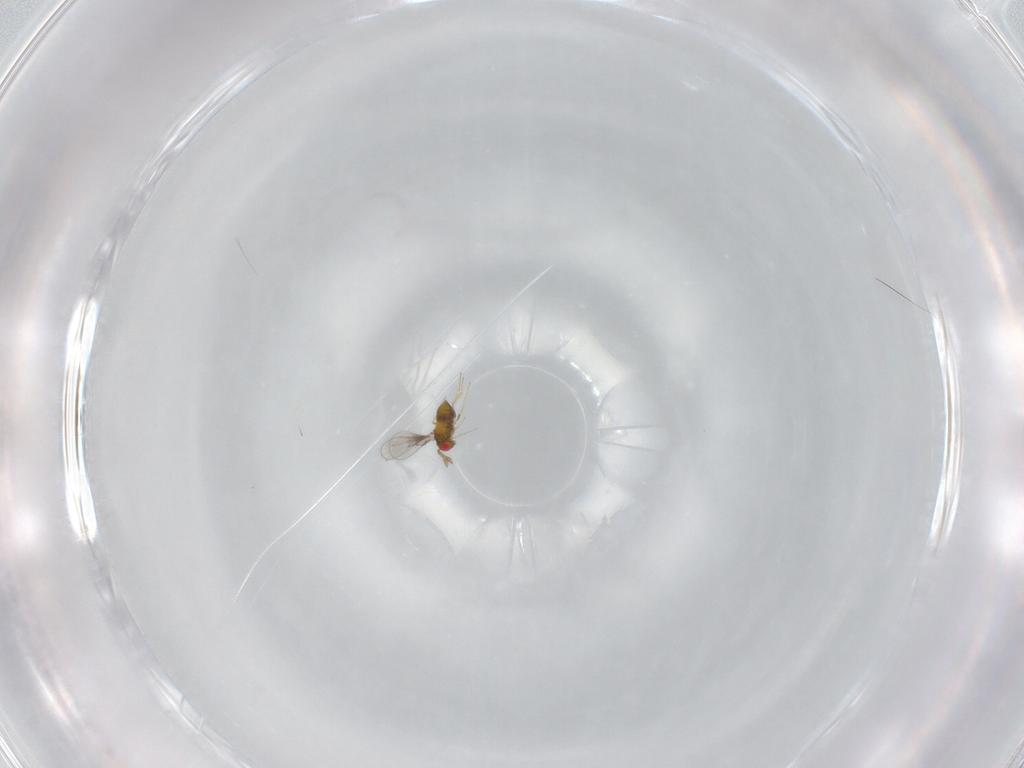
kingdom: Animalia
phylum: Arthropoda
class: Insecta
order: Hymenoptera
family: Trichogrammatidae
